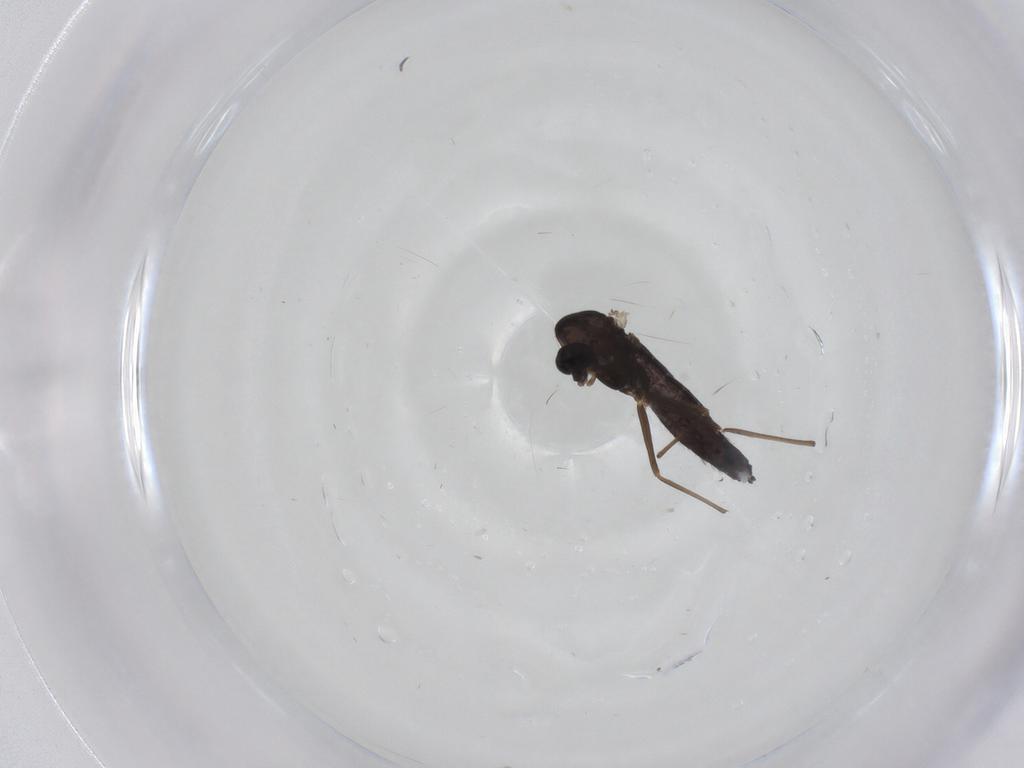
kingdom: Animalia
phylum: Arthropoda
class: Insecta
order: Diptera
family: Chironomidae
